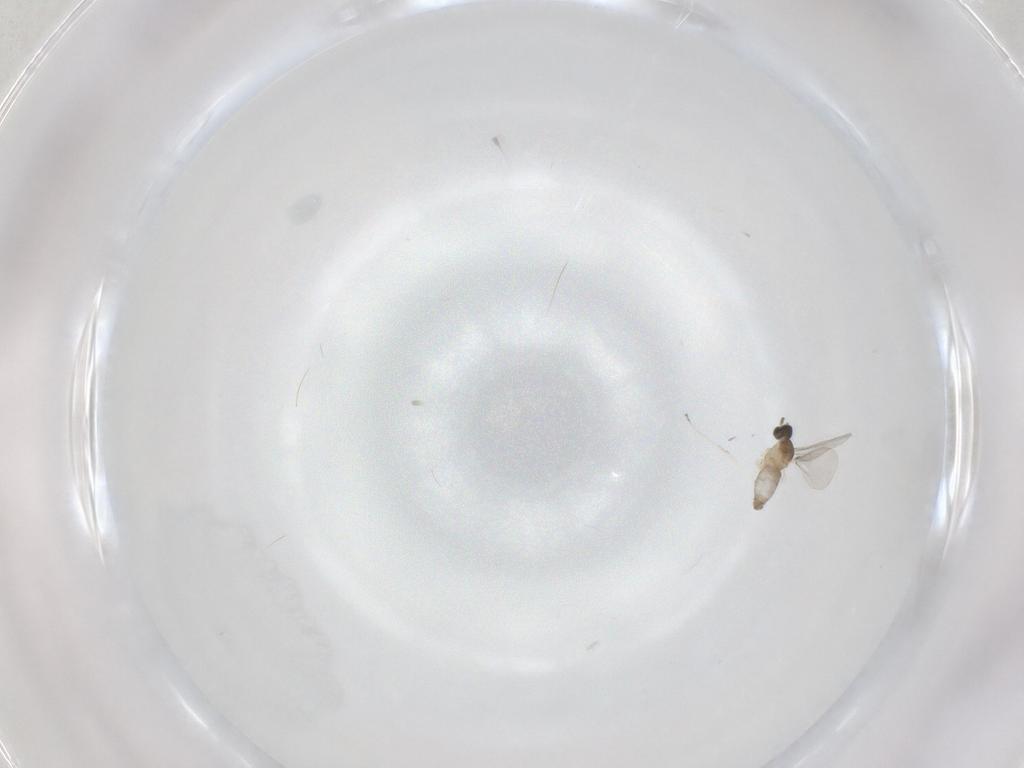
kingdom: Animalia
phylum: Arthropoda
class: Insecta
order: Diptera
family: Cecidomyiidae
